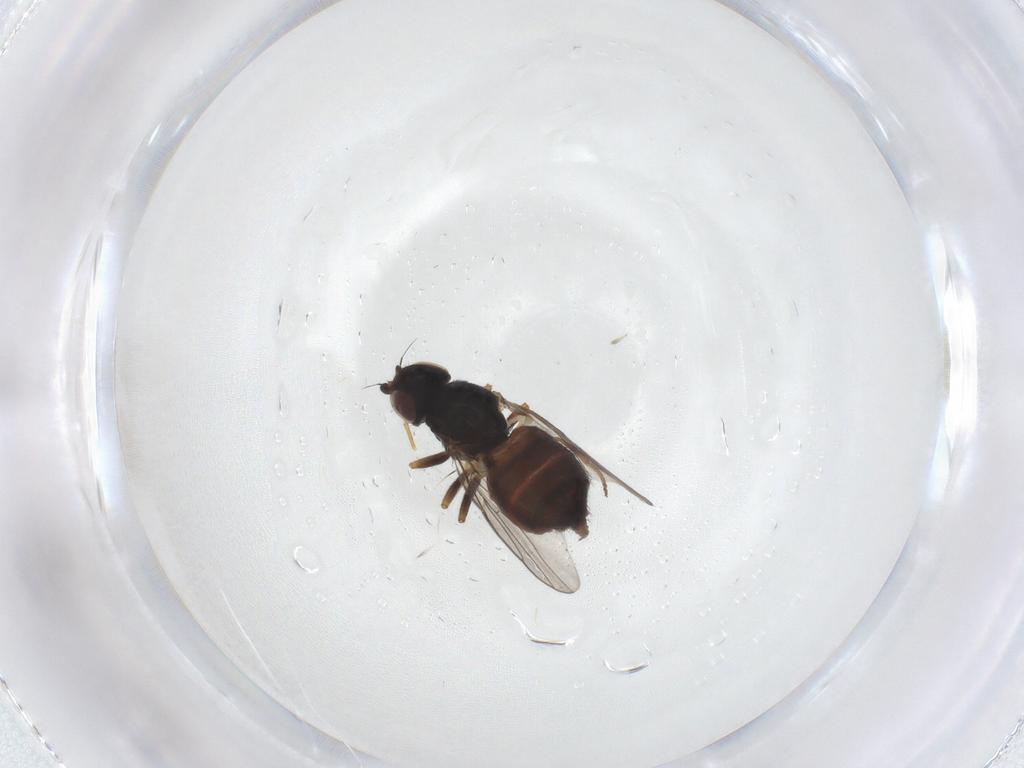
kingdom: Animalia
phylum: Arthropoda
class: Insecta
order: Diptera
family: Chloropidae
